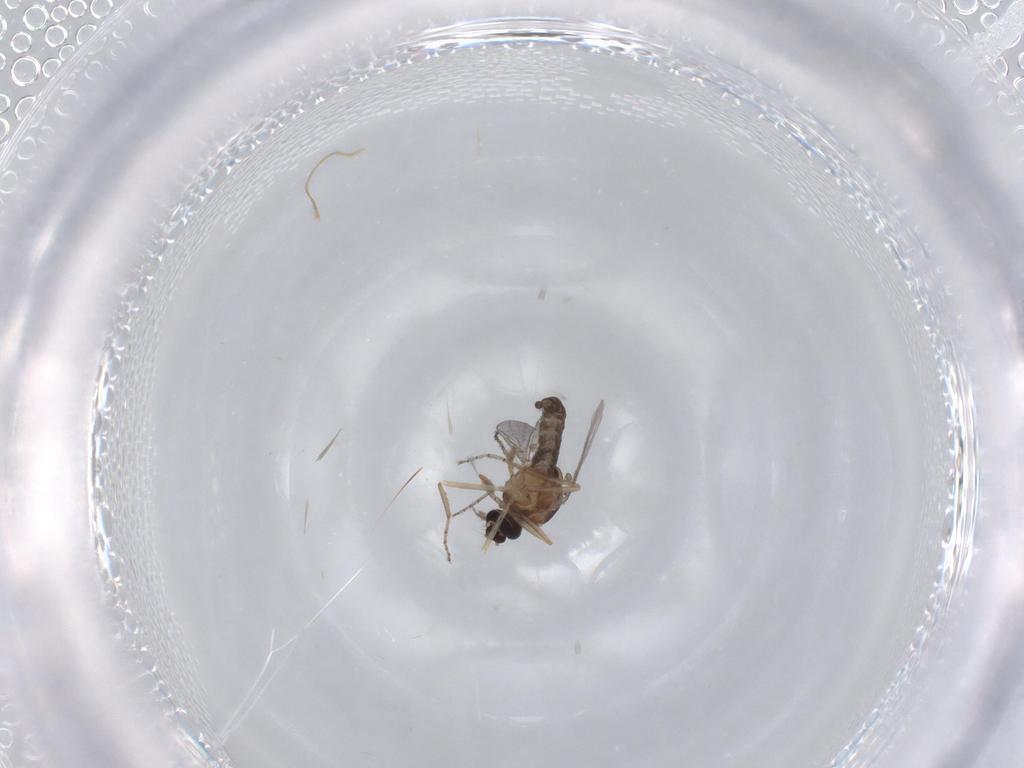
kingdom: Animalia
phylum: Arthropoda
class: Insecta
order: Diptera
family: Ceratopogonidae
